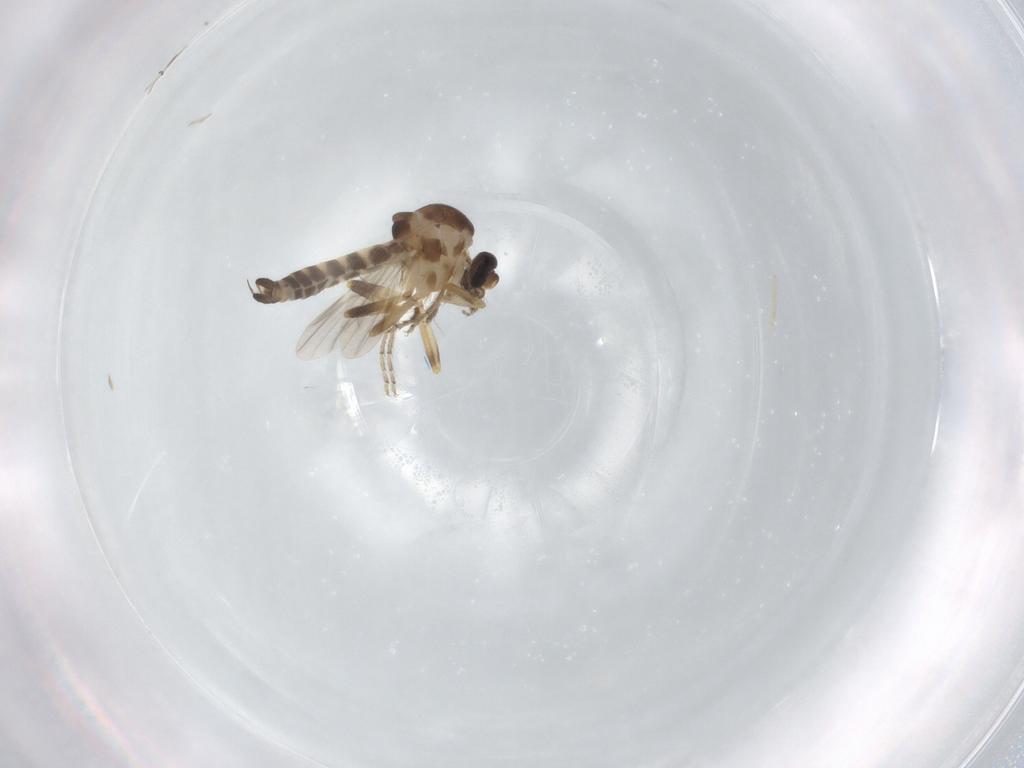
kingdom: Animalia
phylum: Arthropoda
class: Insecta
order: Diptera
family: Ceratopogonidae
